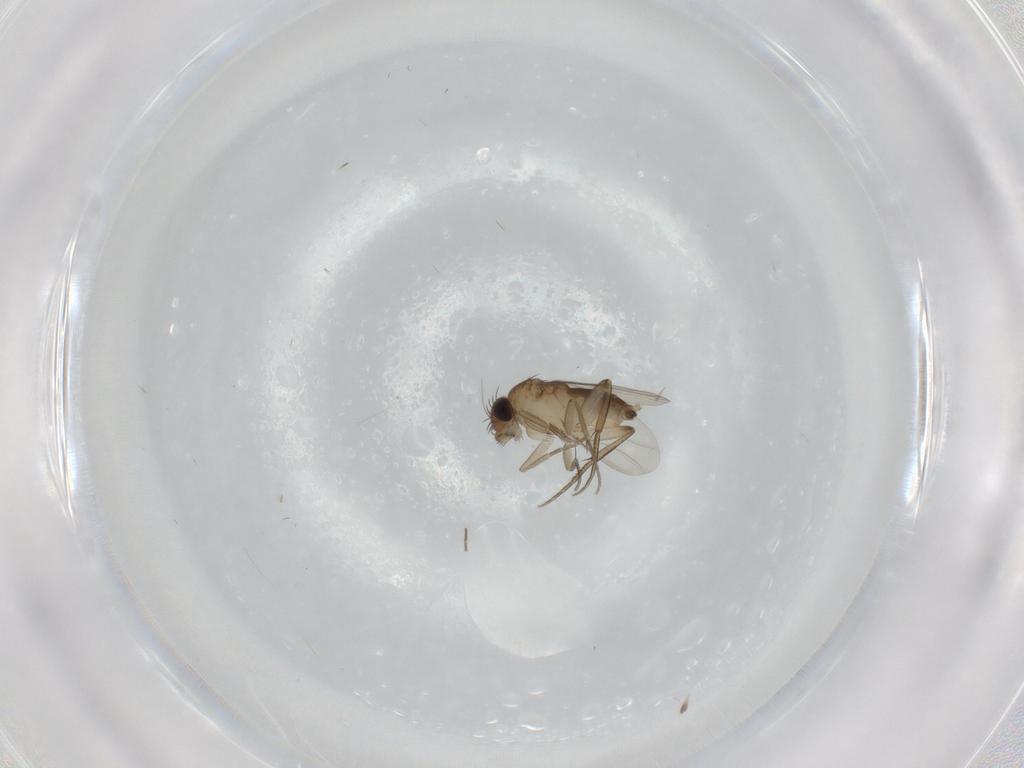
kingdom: Animalia
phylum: Arthropoda
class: Insecta
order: Diptera
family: Phoridae
